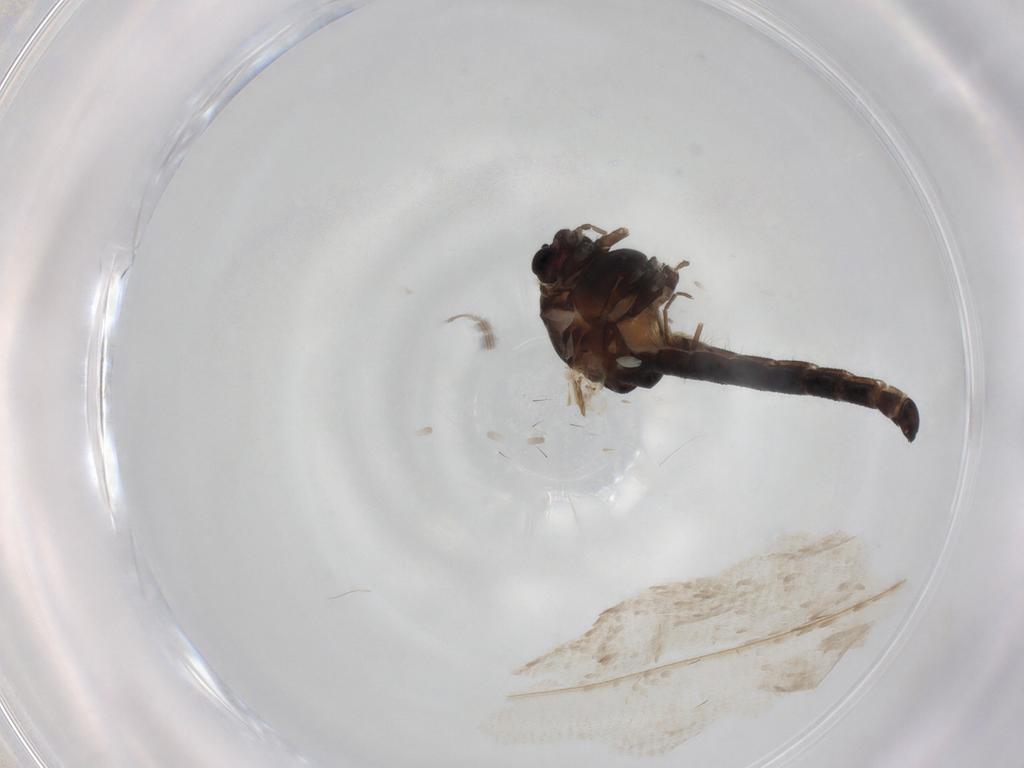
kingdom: Animalia
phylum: Arthropoda
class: Insecta
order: Diptera
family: Chironomidae
